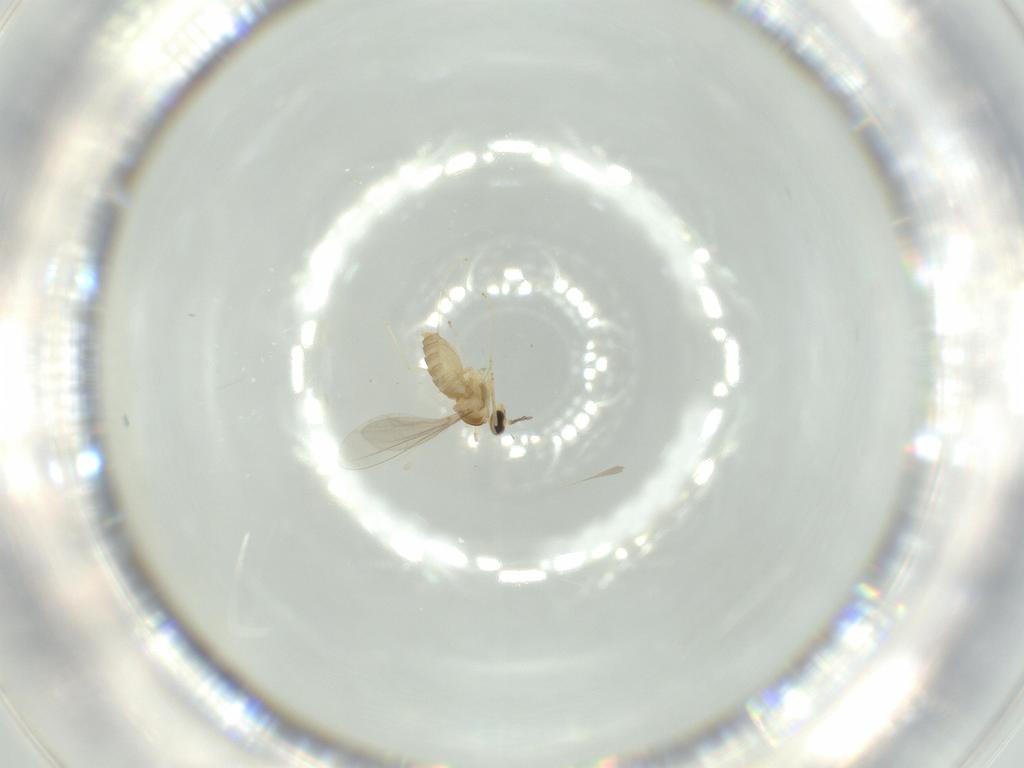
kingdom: Animalia
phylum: Arthropoda
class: Insecta
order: Diptera
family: Cecidomyiidae
